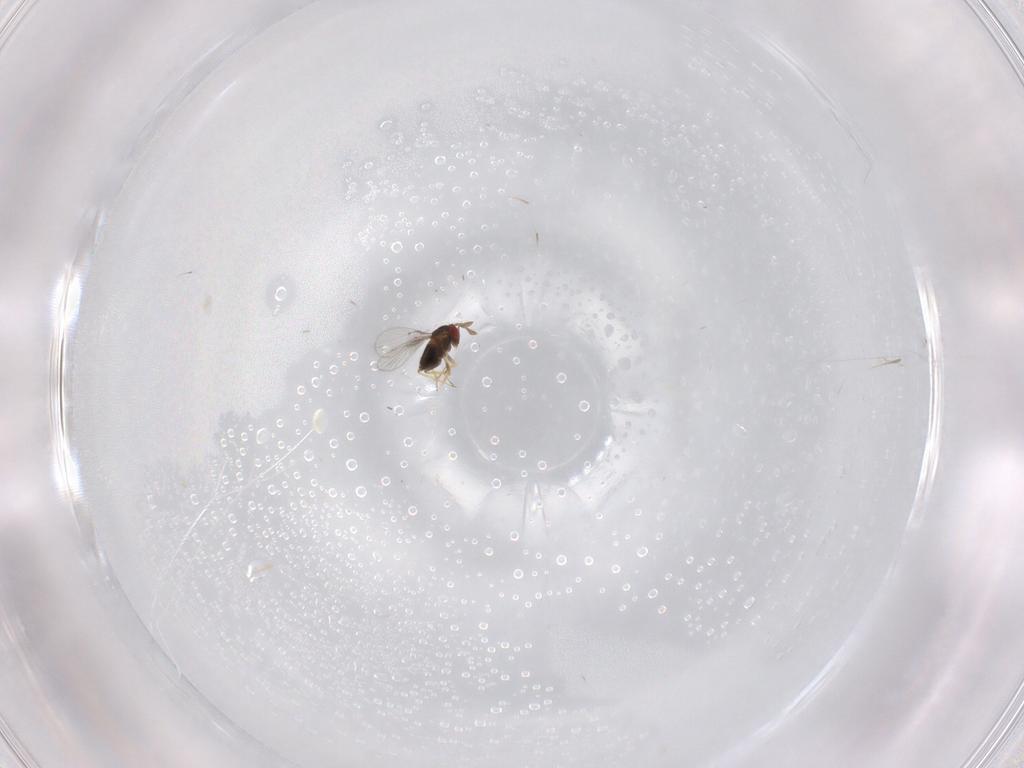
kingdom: Animalia
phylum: Arthropoda
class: Insecta
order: Hymenoptera
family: Trichogrammatidae
